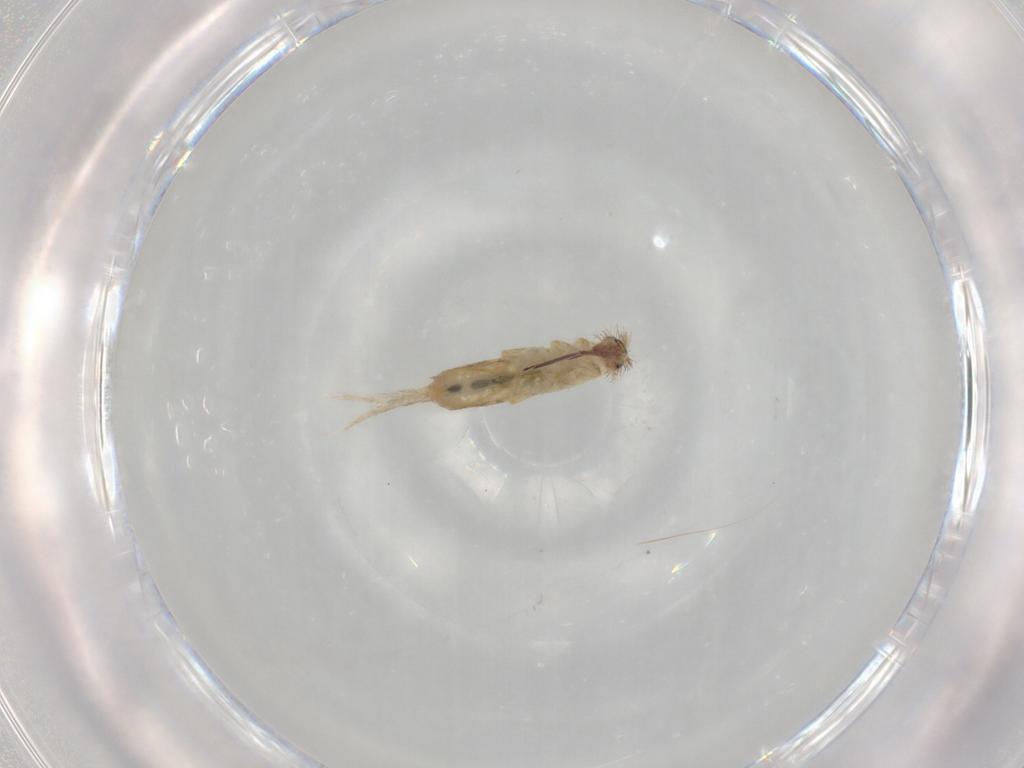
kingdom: Animalia
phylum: Arthropoda
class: Collembola
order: Entomobryomorpha
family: Entomobryidae
